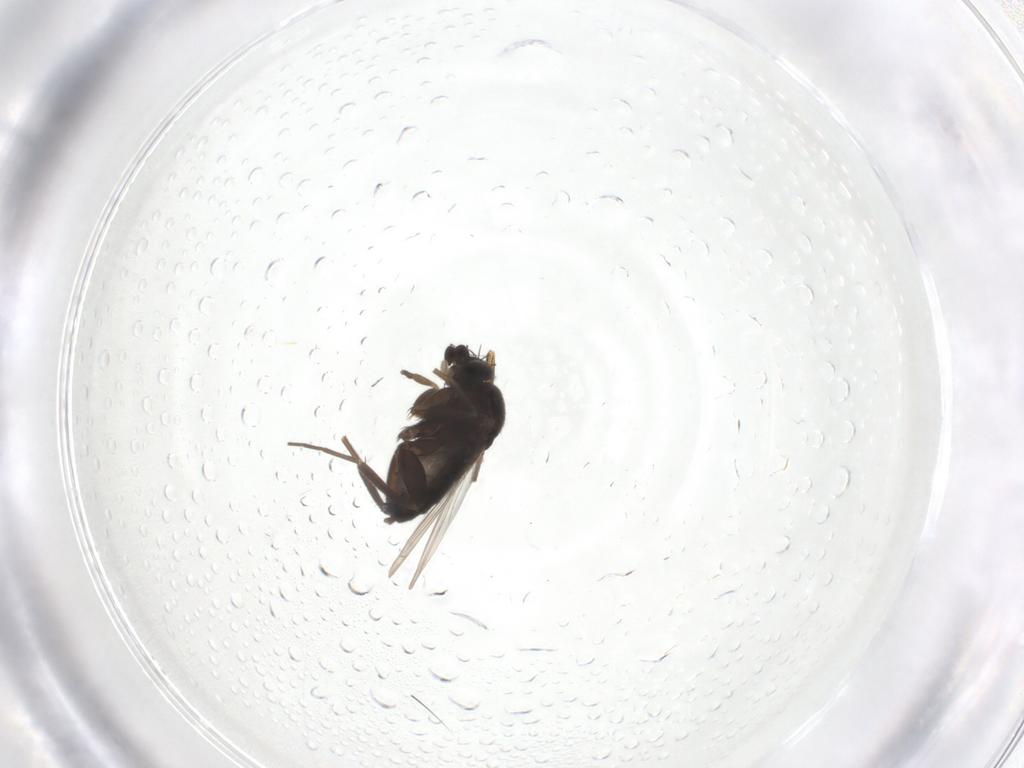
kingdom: Animalia
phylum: Arthropoda
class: Insecta
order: Diptera
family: Phoridae
